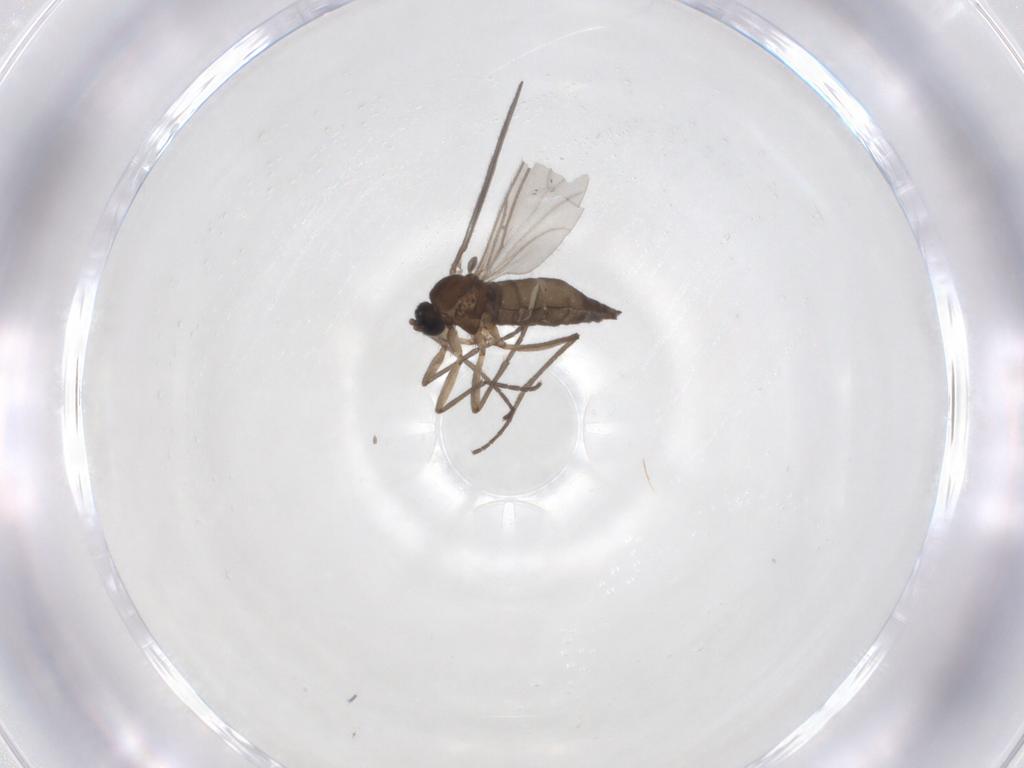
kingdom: Animalia
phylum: Arthropoda
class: Insecta
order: Diptera
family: Sciaridae
